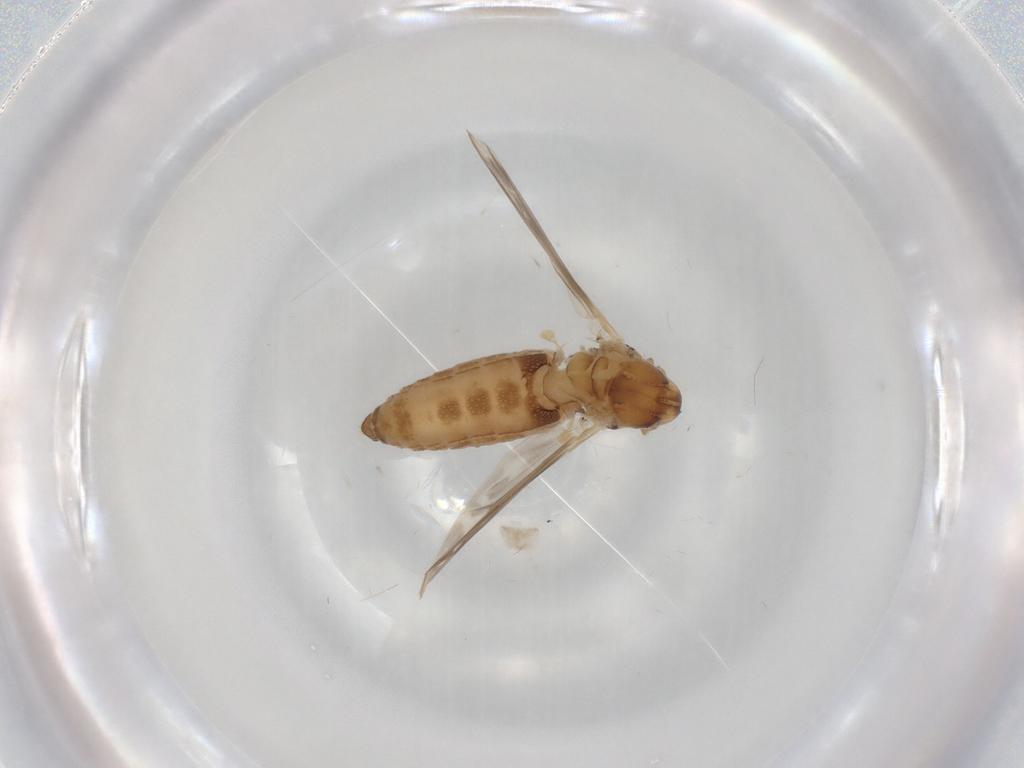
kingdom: Animalia
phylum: Arthropoda
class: Insecta
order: Diptera
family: Chironomidae
